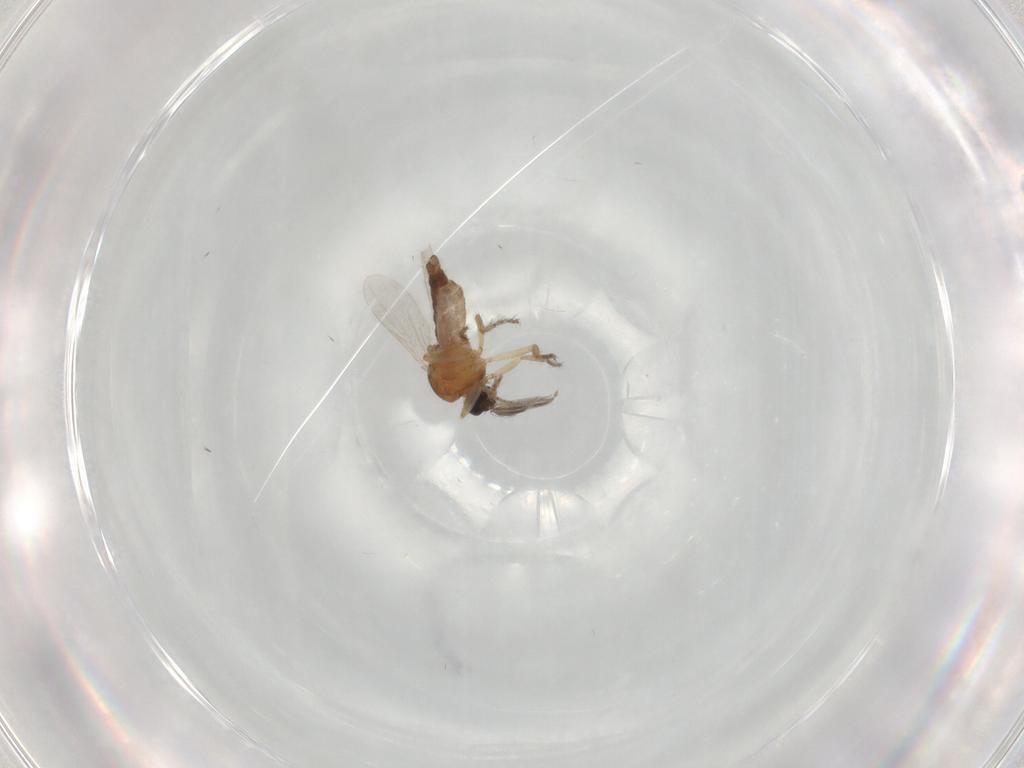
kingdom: Animalia
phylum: Arthropoda
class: Insecta
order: Diptera
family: Ceratopogonidae
